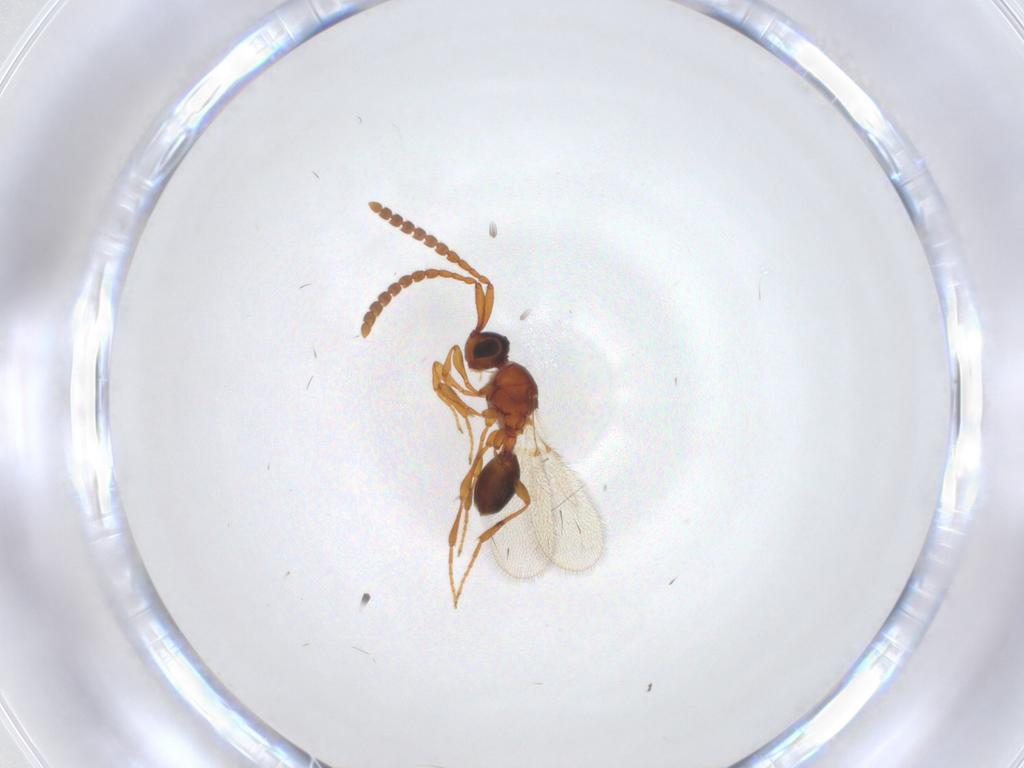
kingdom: Animalia
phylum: Arthropoda
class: Insecta
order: Hymenoptera
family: Diapriidae
